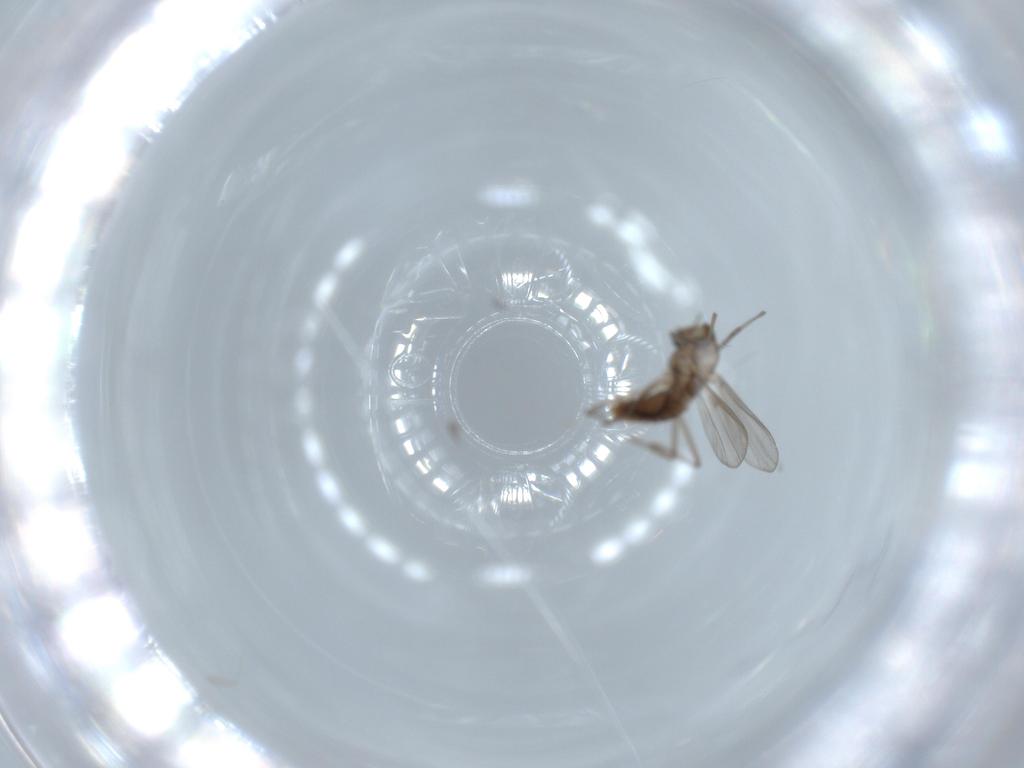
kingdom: Animalia
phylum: Arthropoda
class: Insecta
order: Diptera
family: Chironomidae
